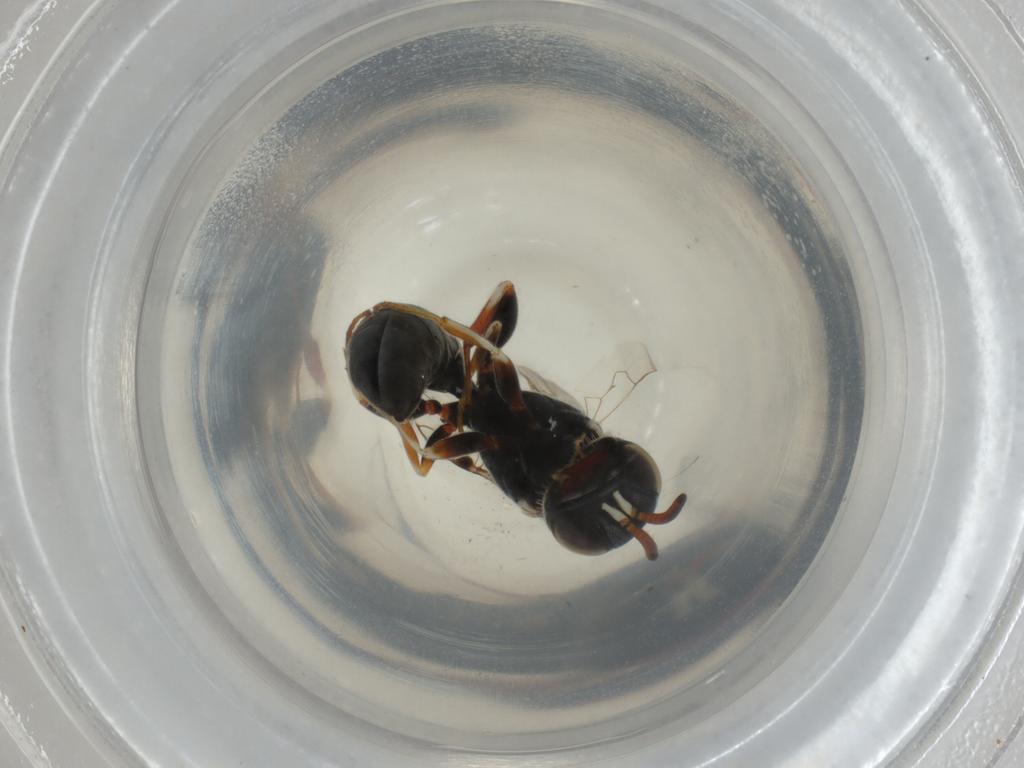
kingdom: Animalia
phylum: Arthropoda
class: Insecta
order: Hymenoptera
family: Pemphredonidae
